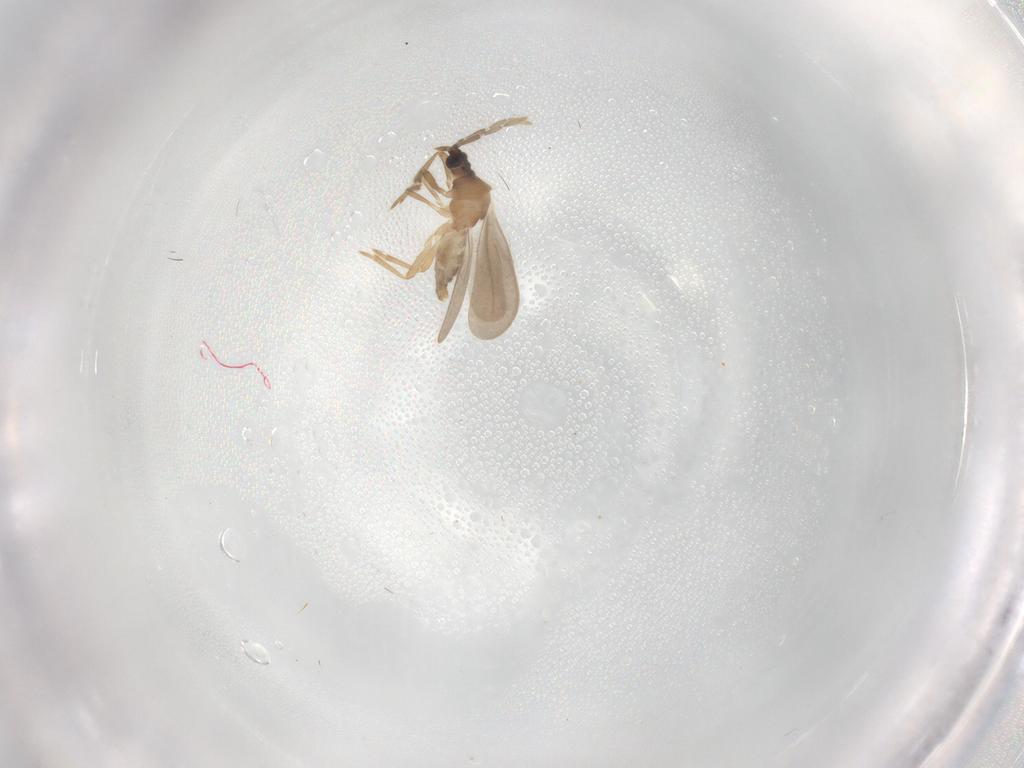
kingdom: Animalia
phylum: Arthropoda
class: Insecta
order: Hemiptera
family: Enicocephalidae
